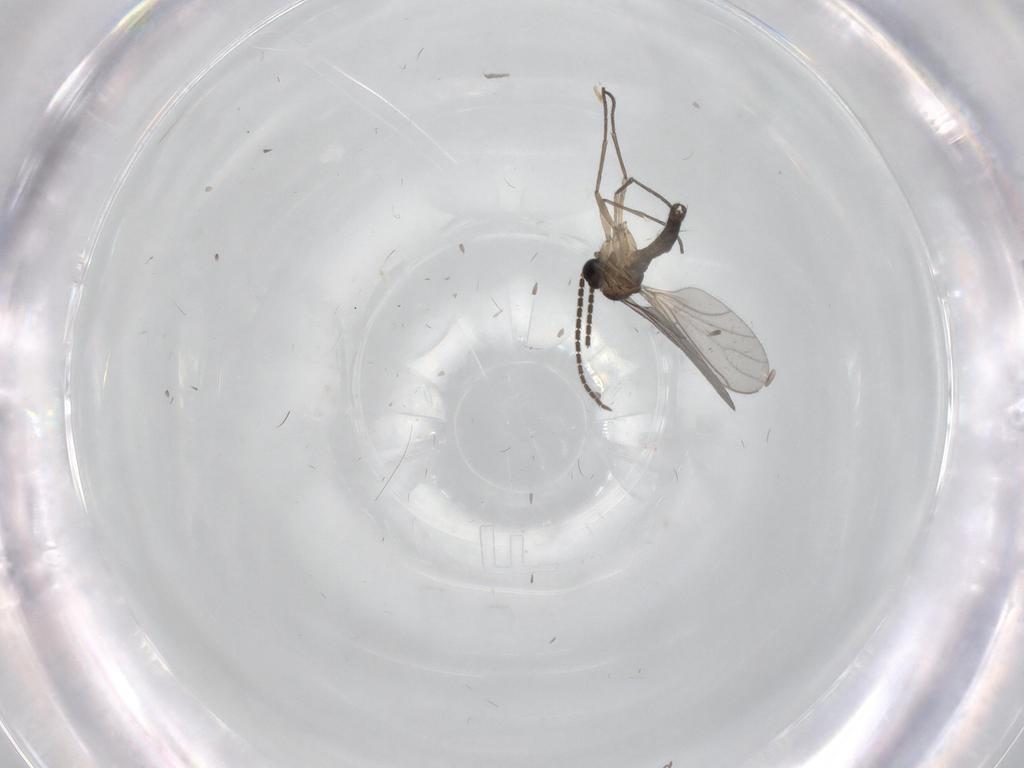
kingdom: Animalia
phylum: Arthropoda
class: Insecta
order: Diptera
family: Sciaridae
